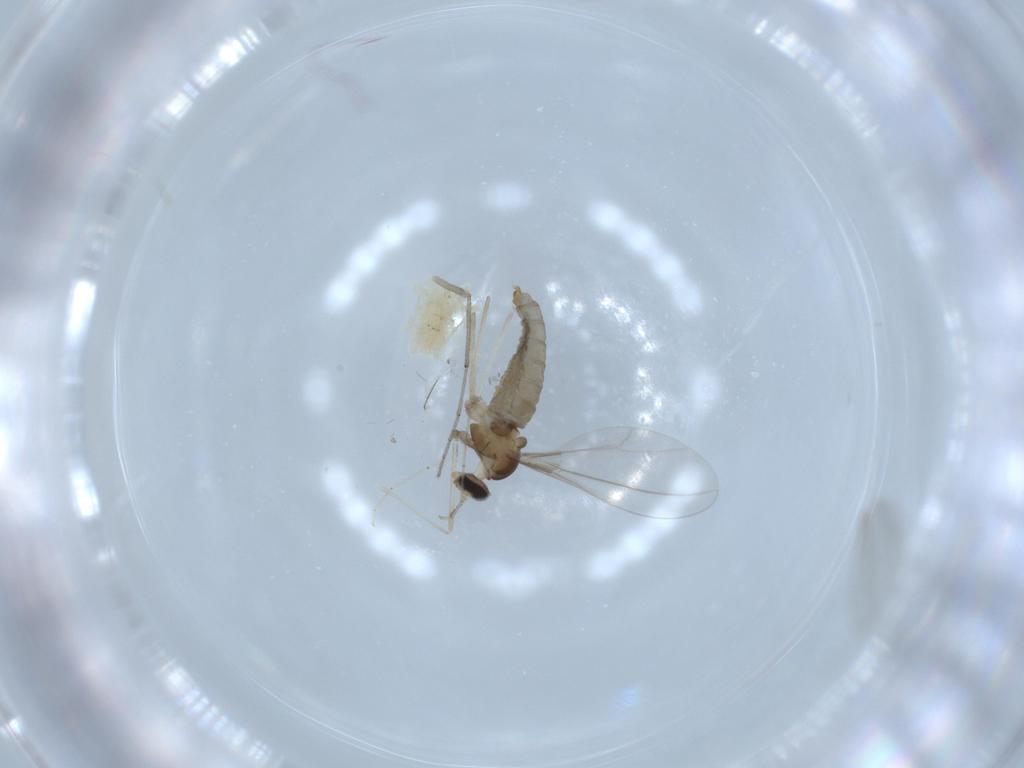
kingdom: Animalia
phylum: Arthropoda
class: Insecta
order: Diptera
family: Cecidomyiidae
